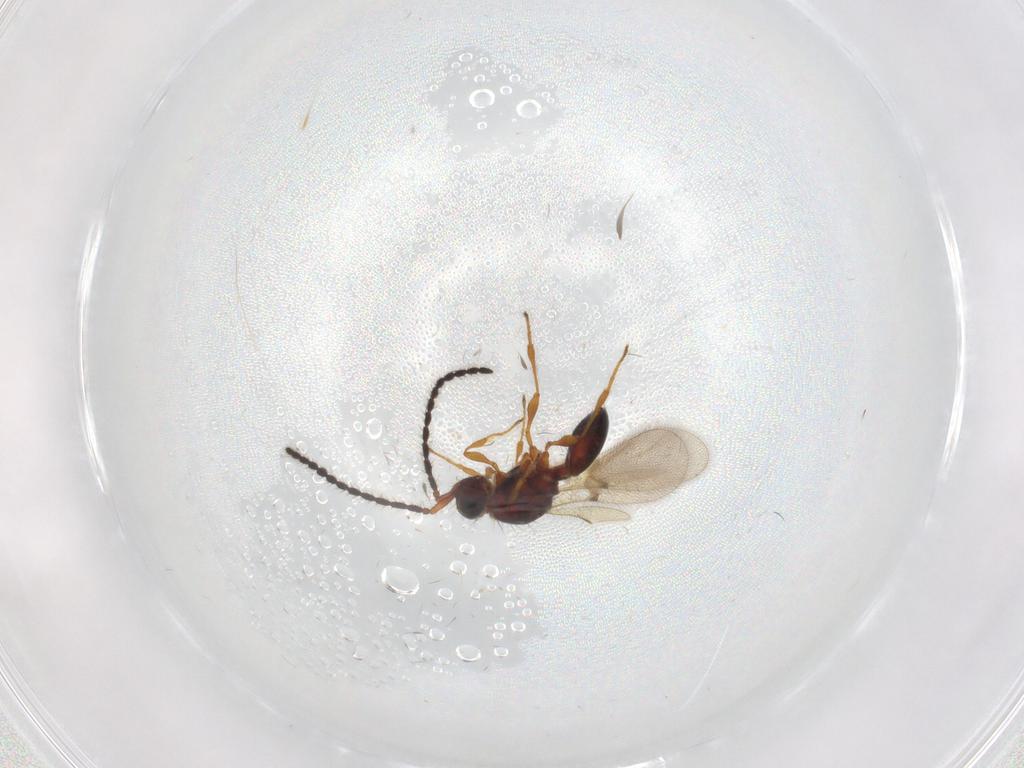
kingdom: Animalia
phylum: Arthropoda
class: Insecta
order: Hymenoptera
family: Diapriidae
